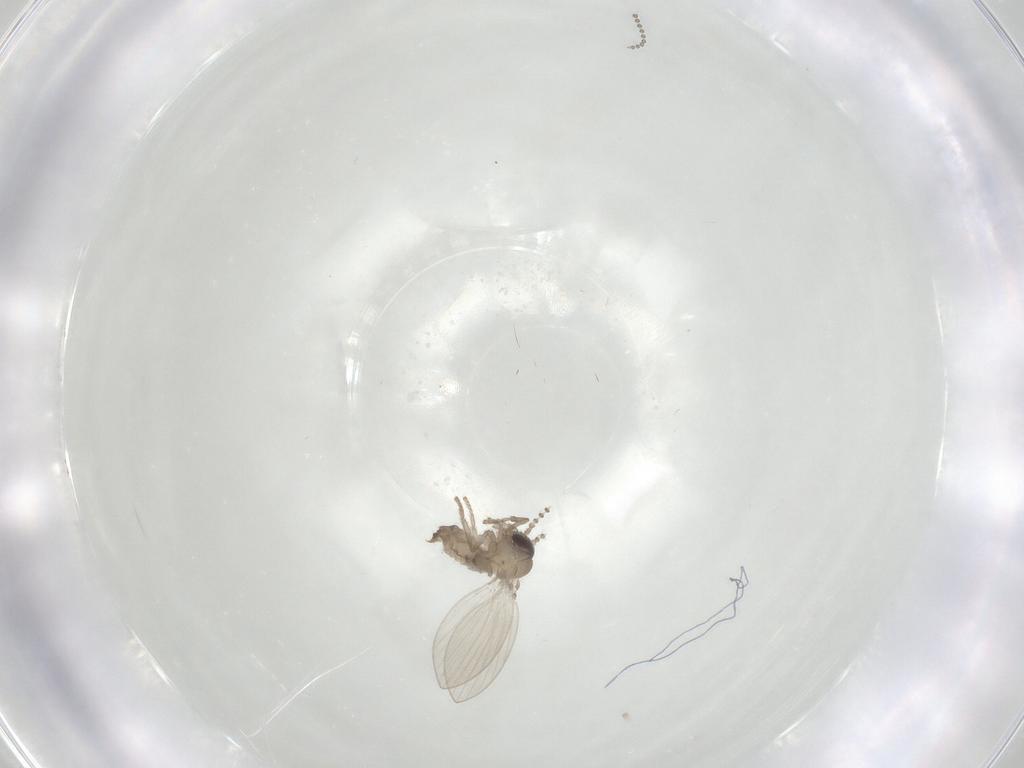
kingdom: Animalia
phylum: Arthropoda
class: Insecta
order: Diptera
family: Psychodidae
